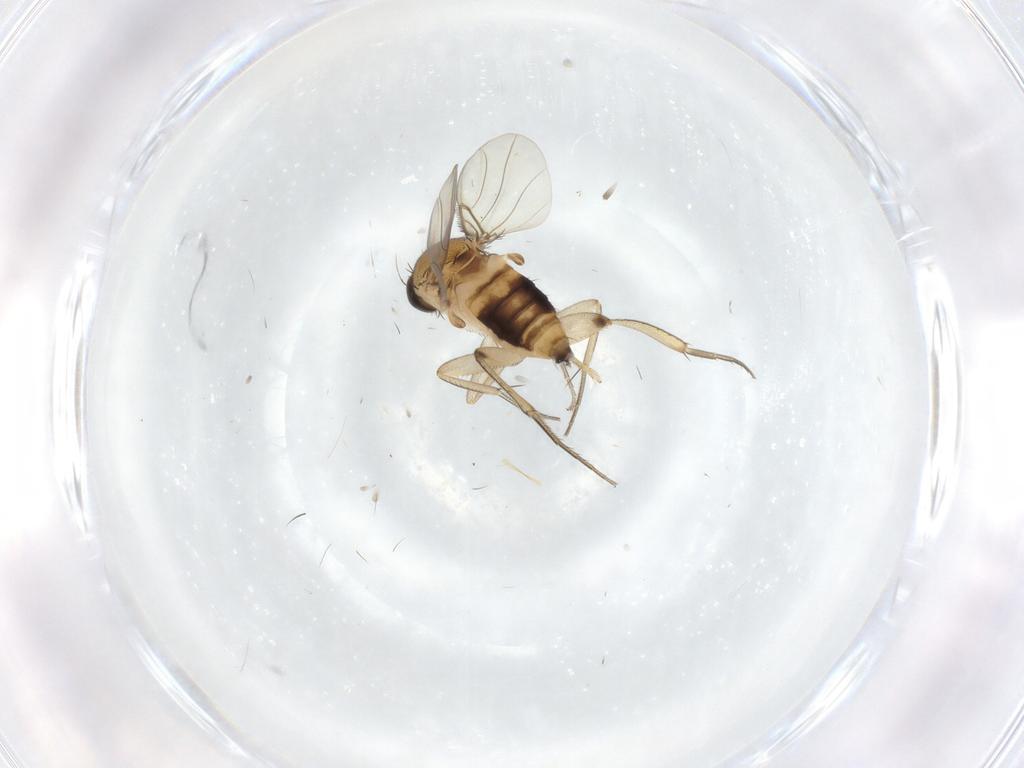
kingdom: Animalia
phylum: Arthropoda
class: Insecta
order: Diptera
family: Phoridae
